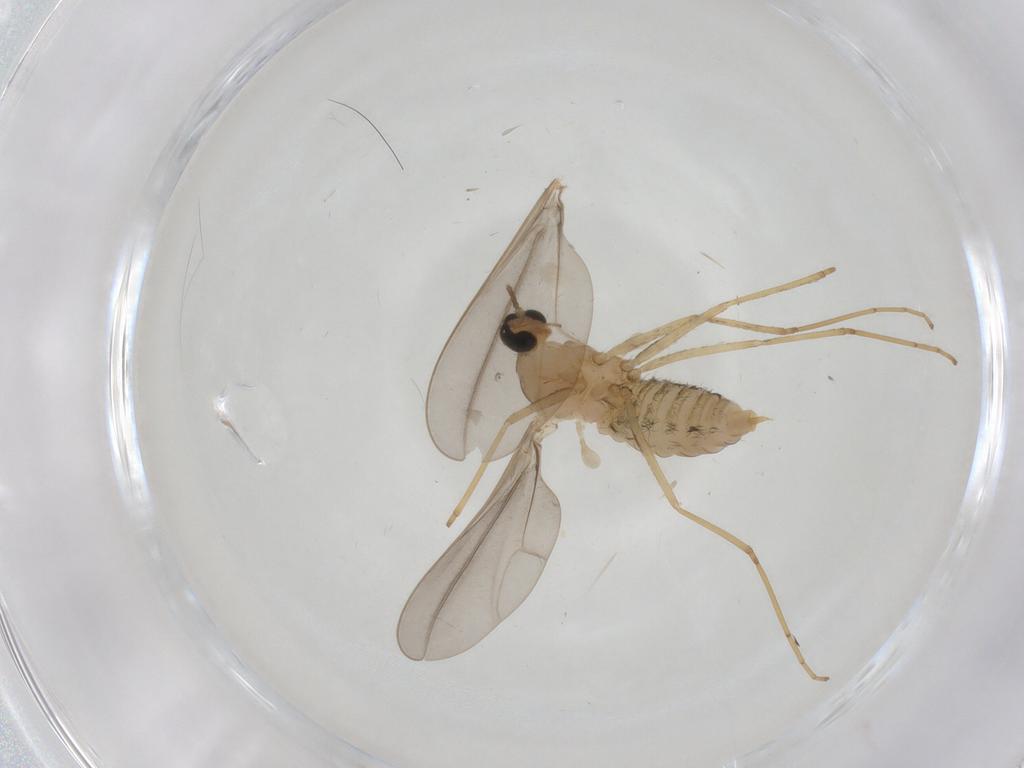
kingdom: Animalia
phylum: Arthropoda
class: Insecta
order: Diptera
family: Cecidomyiidae
